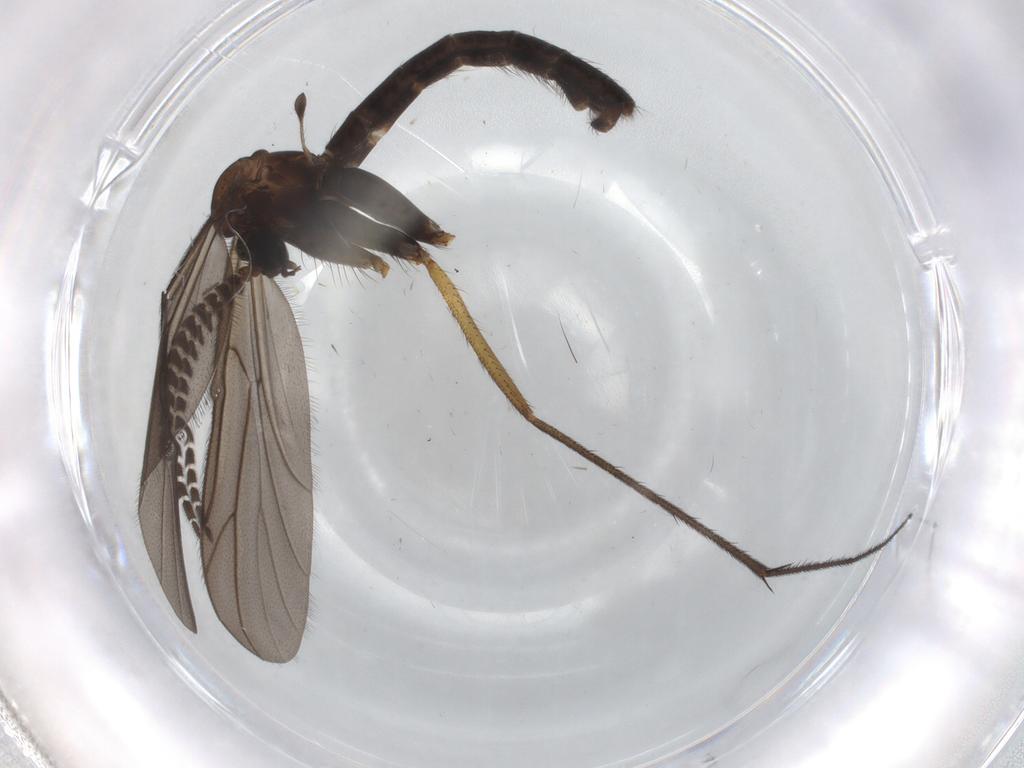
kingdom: Animalia
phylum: Arthropoda
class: Insecta
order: Diptera
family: Phoridae
